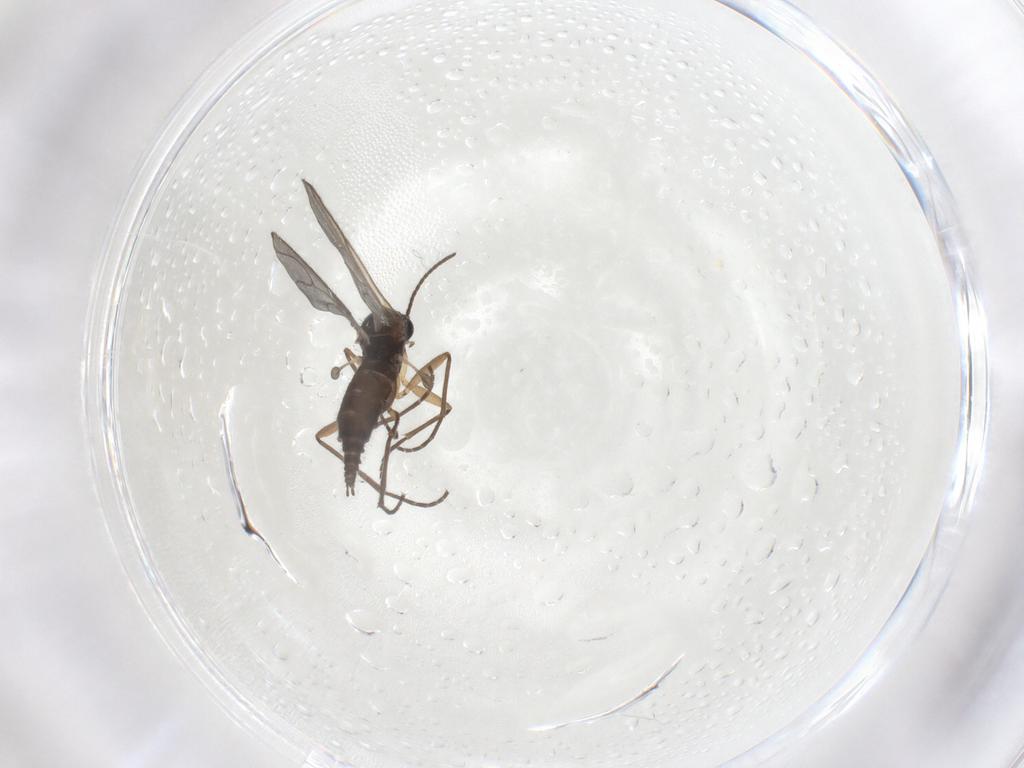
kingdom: Animalia
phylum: Arthropoda
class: Insecta
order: Diptera
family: Sciaridae
